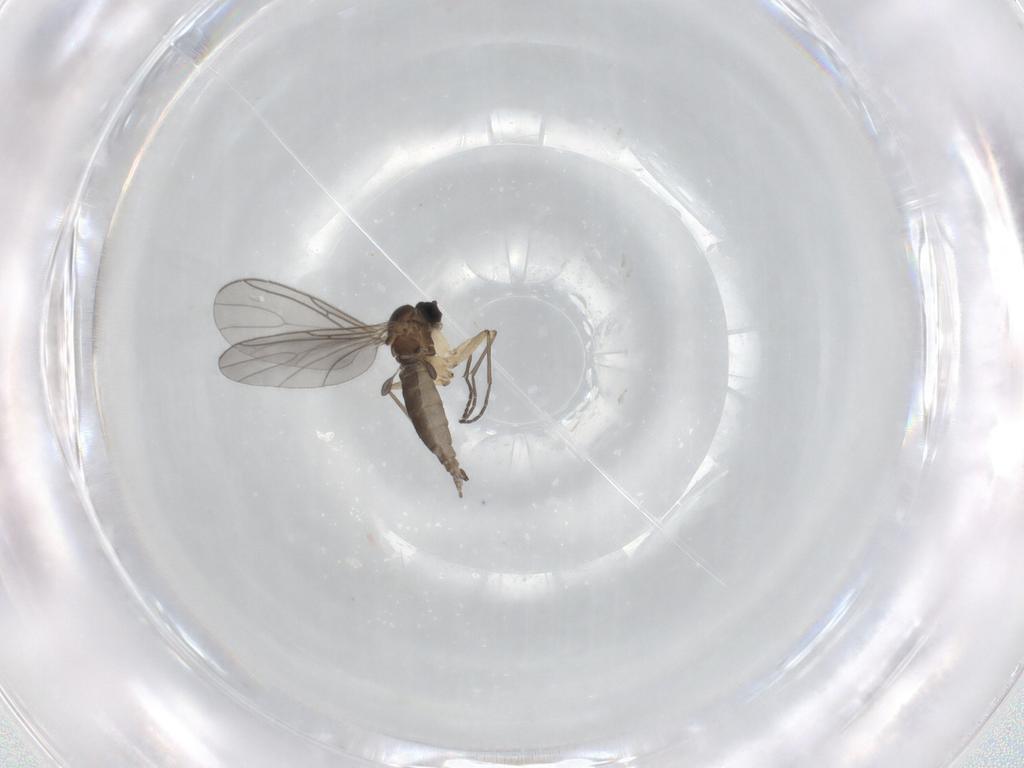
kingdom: Animalia
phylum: Arthropoda
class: Insecta
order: Diptera
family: Sciaridae
